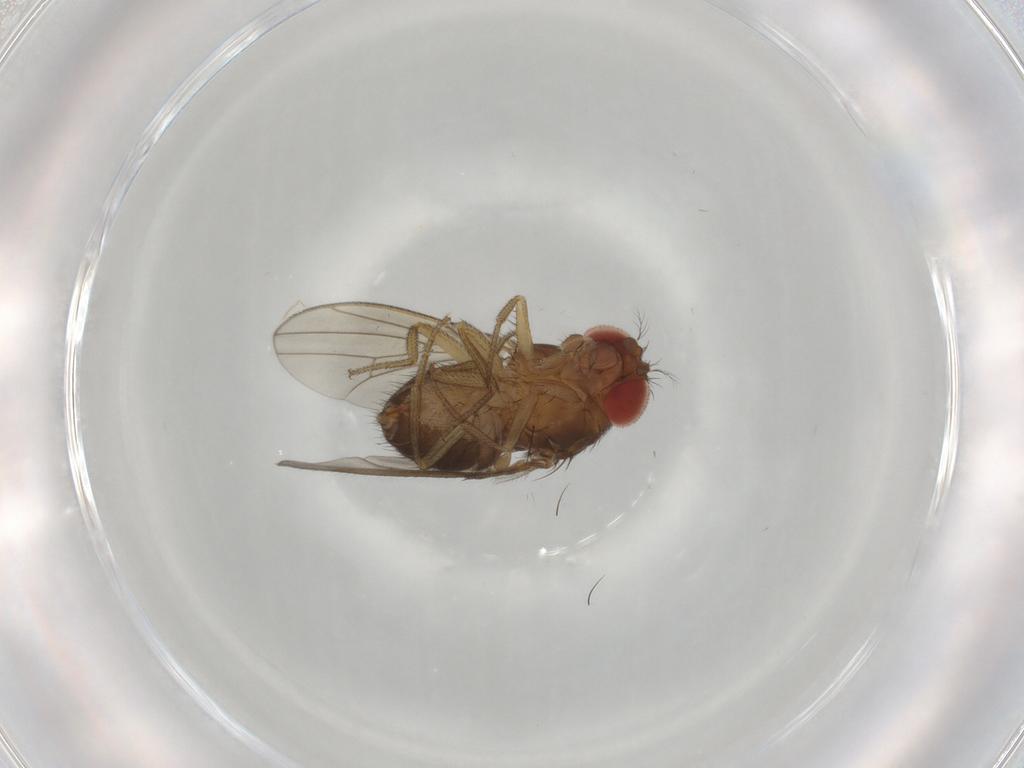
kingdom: Animalia
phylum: Arthropoda
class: Insecta
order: Diptera
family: Drosophilidae
